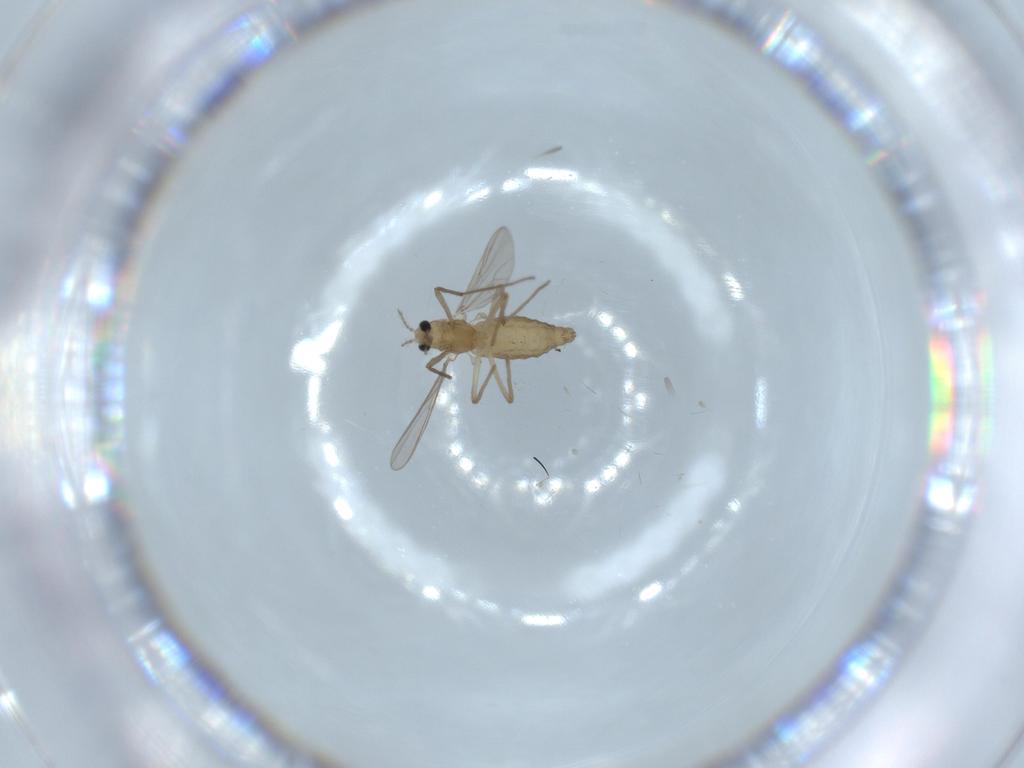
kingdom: Animalia
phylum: Arthropoda
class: Insecta
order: Diptera
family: Chironomidae
